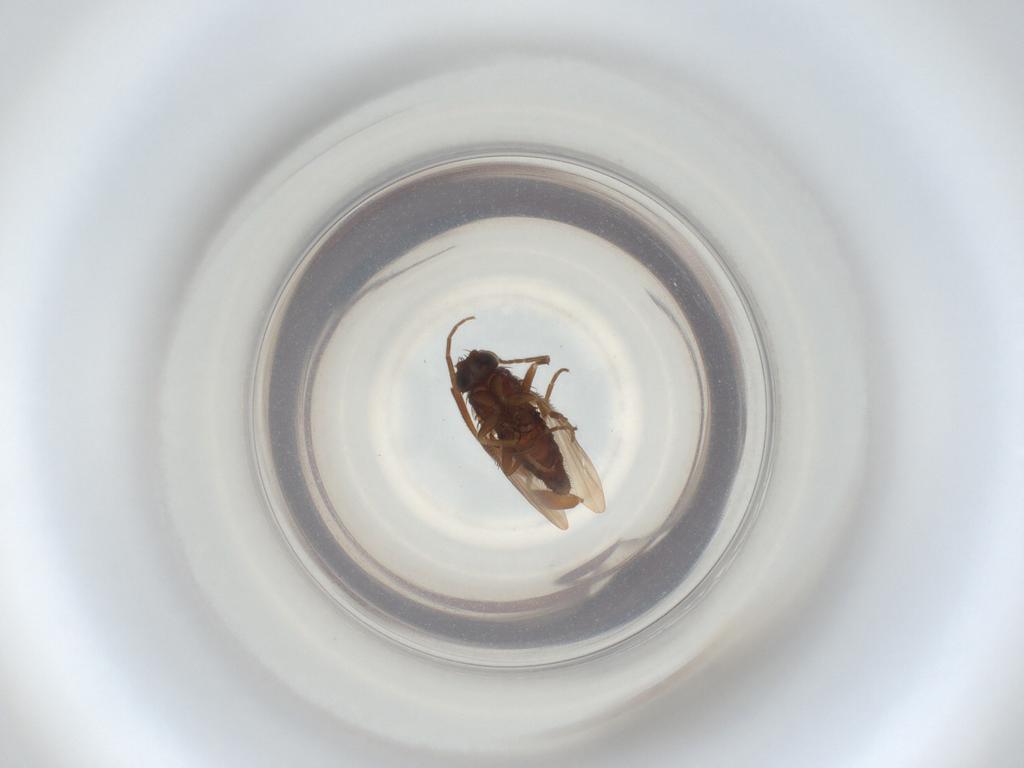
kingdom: Animalia
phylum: Arthropoda
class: Insecta
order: Diptera
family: Phoridae
